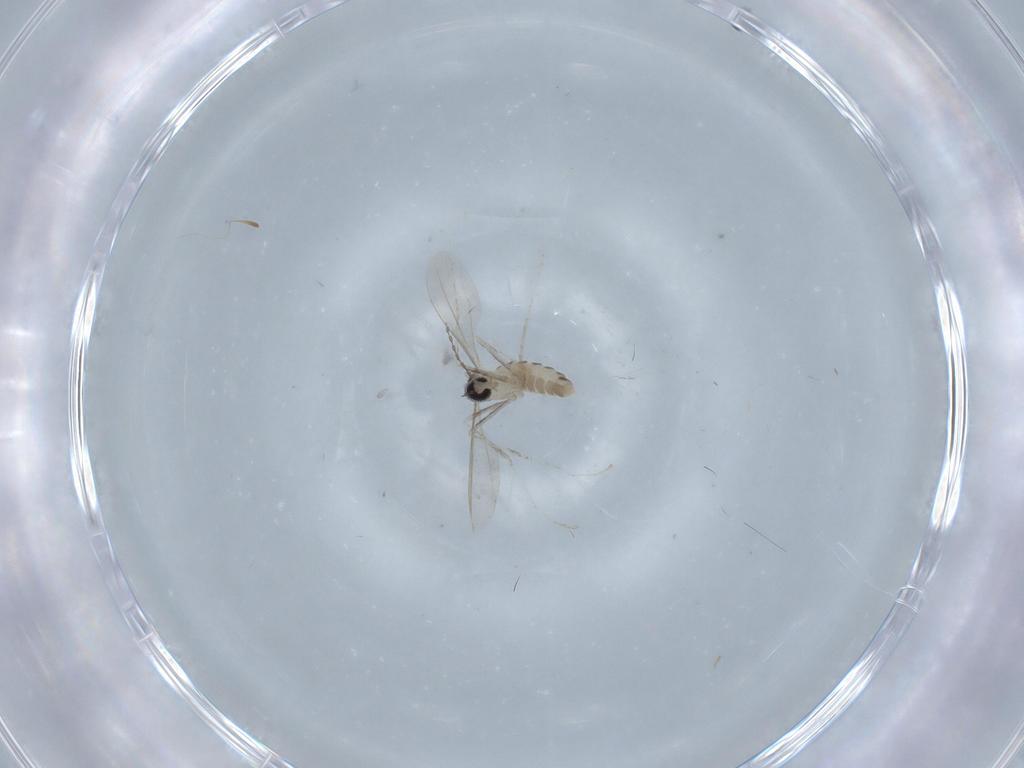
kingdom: Animalia
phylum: Arthropoda
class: Insecta
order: Diptera
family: Cecidomyiidae
